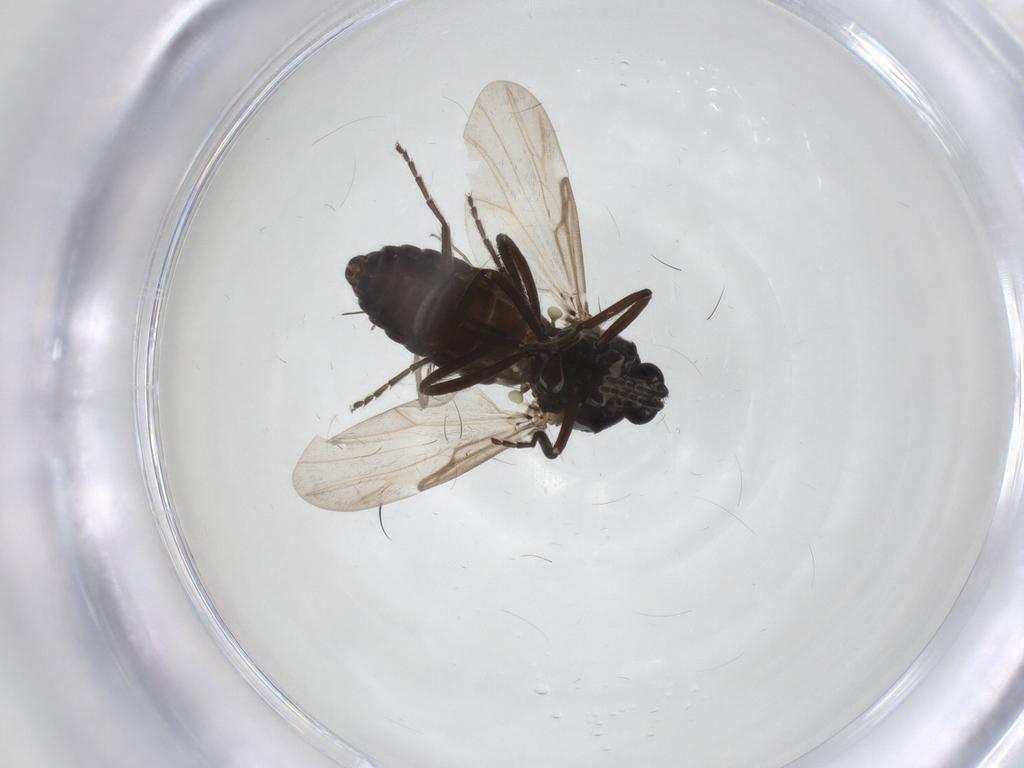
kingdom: Animalia
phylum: Arthropoda
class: Insecta
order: Diptera
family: Ceratopogonidae
